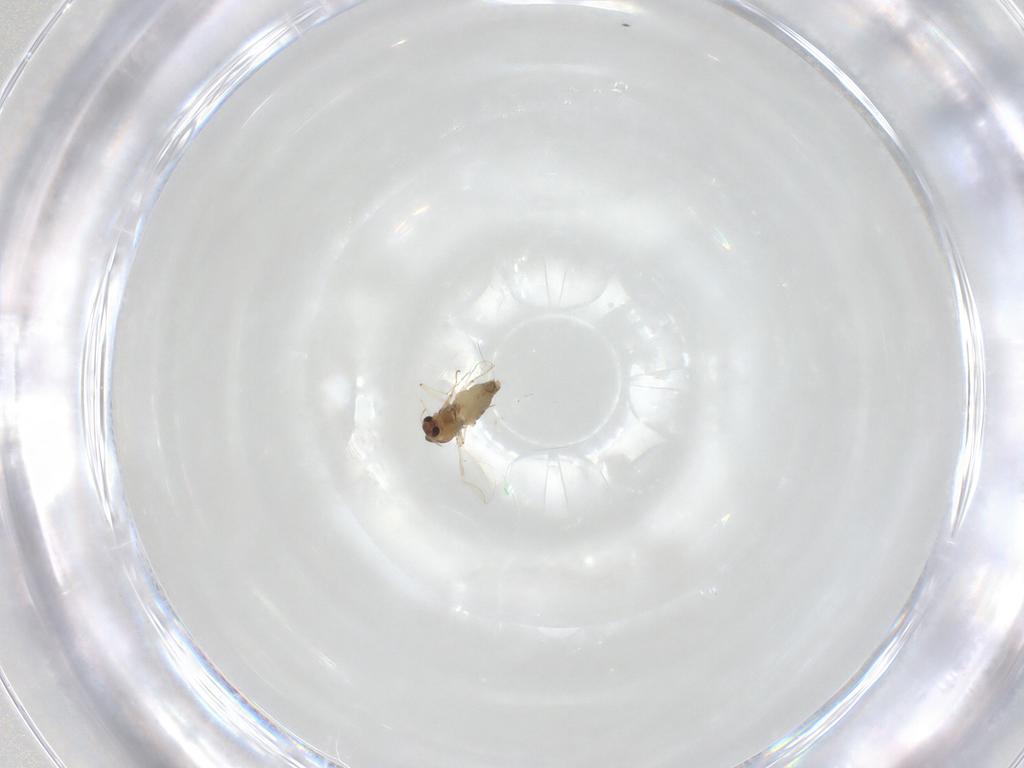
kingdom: Animalia
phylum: Arthropoda
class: Insecta
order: Diptera
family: Chironomidae
